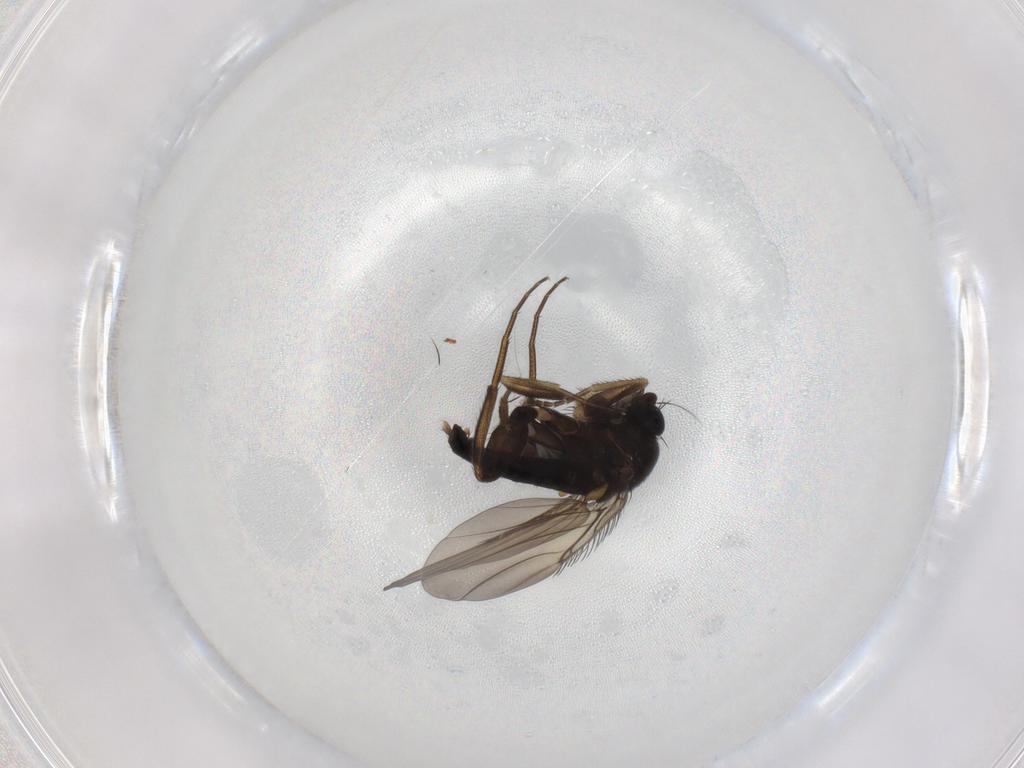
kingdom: Animalia
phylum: Arthropoda
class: Insecta
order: Diptera
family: Phoridae
